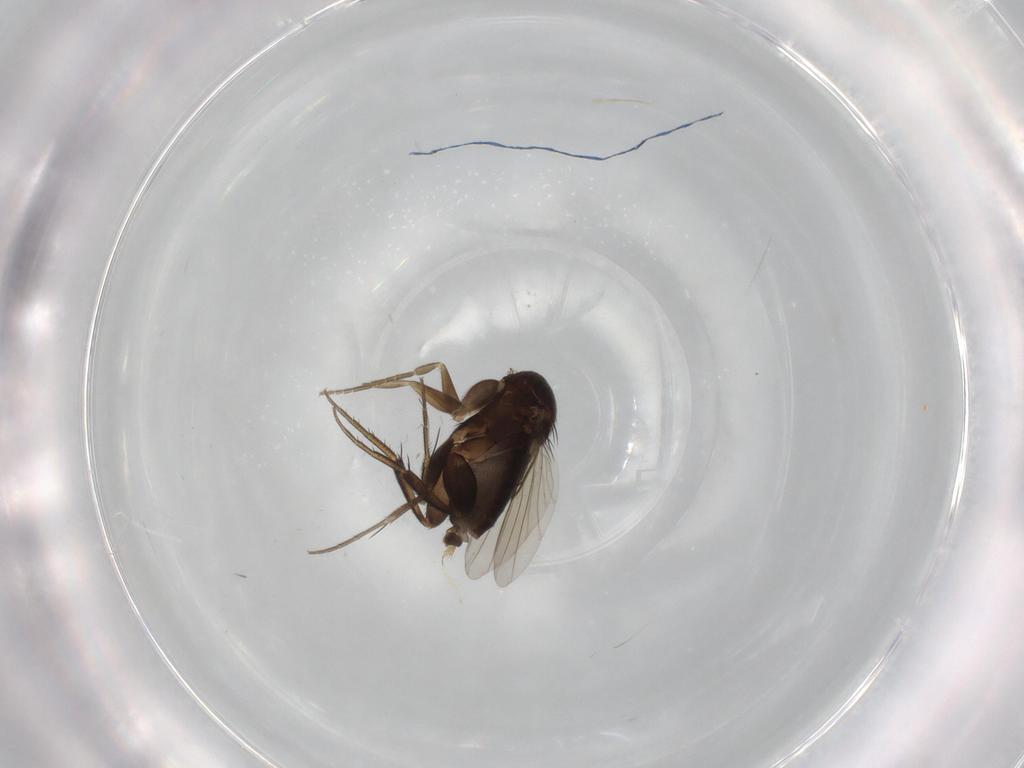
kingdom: Animalia
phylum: Arthropoda
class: Insecta
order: Diptera
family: Phoridae
